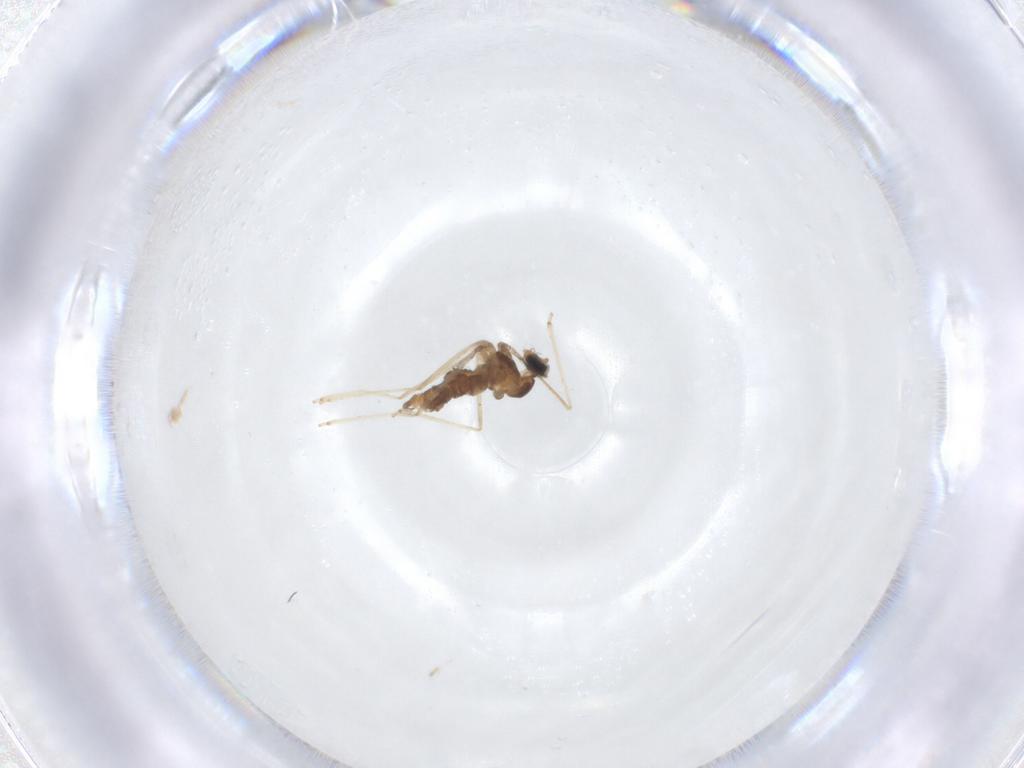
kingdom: Animalia
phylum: Arthropoda
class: Insecta
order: Diptera
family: Cecidomyiidae
